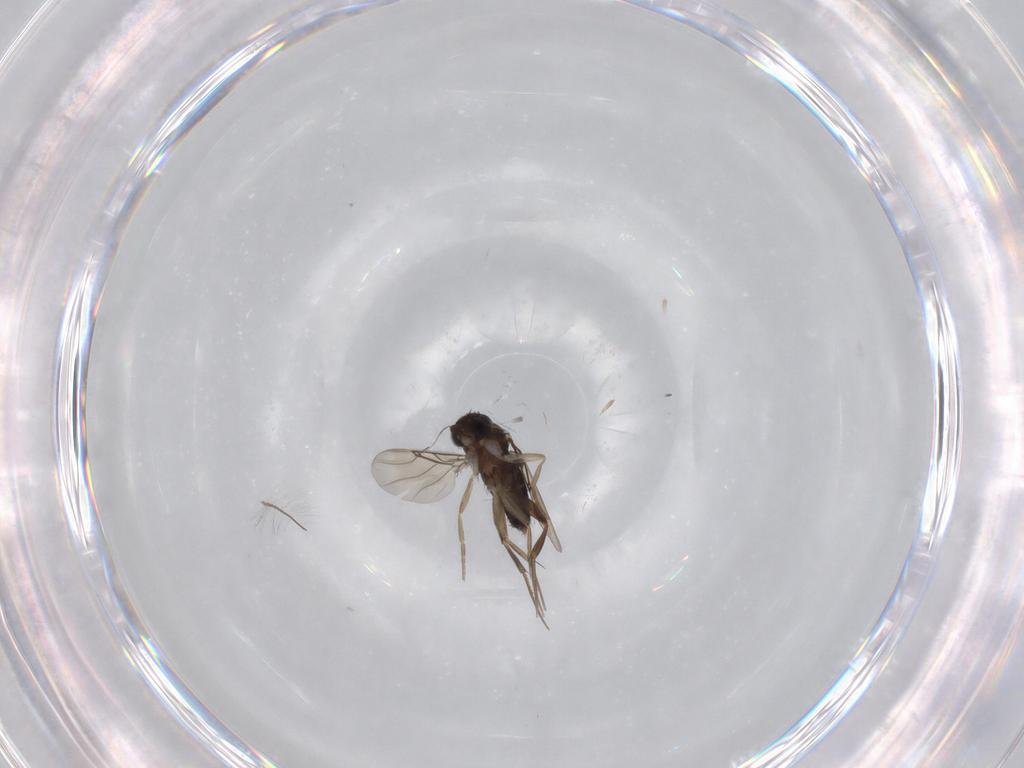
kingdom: Animalia
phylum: Arthropoda
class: Insecta
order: Diptera
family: Phoridae
